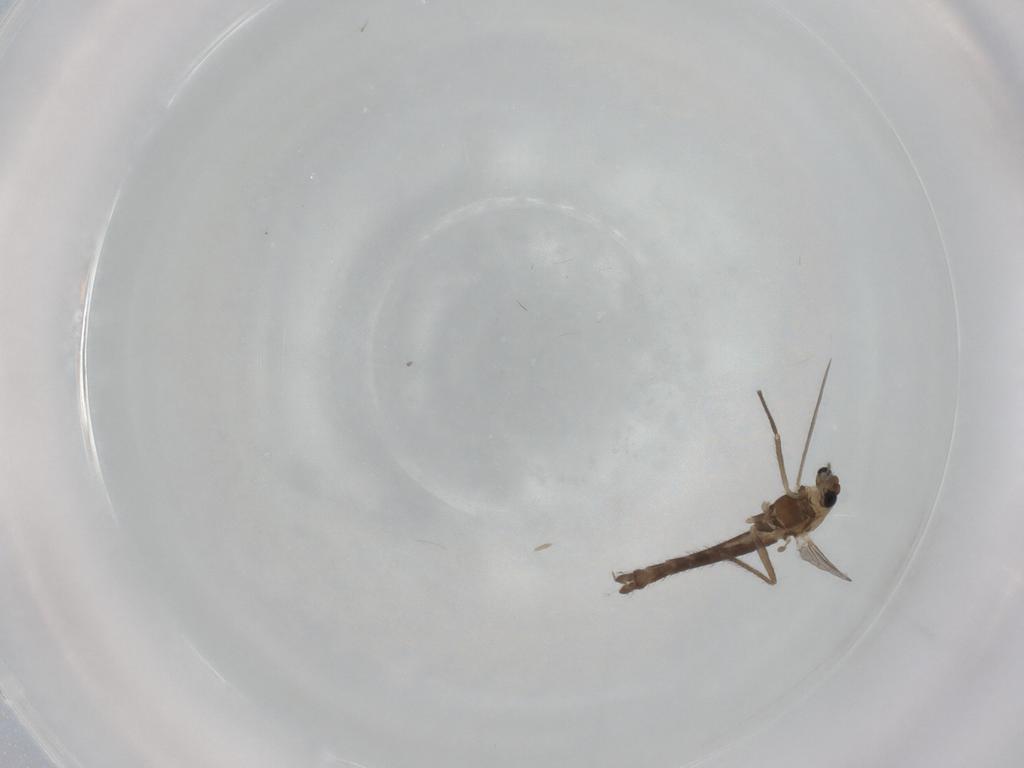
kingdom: Animalia
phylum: Arthropoda
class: Insecta
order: Diptera
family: Chironomidae
